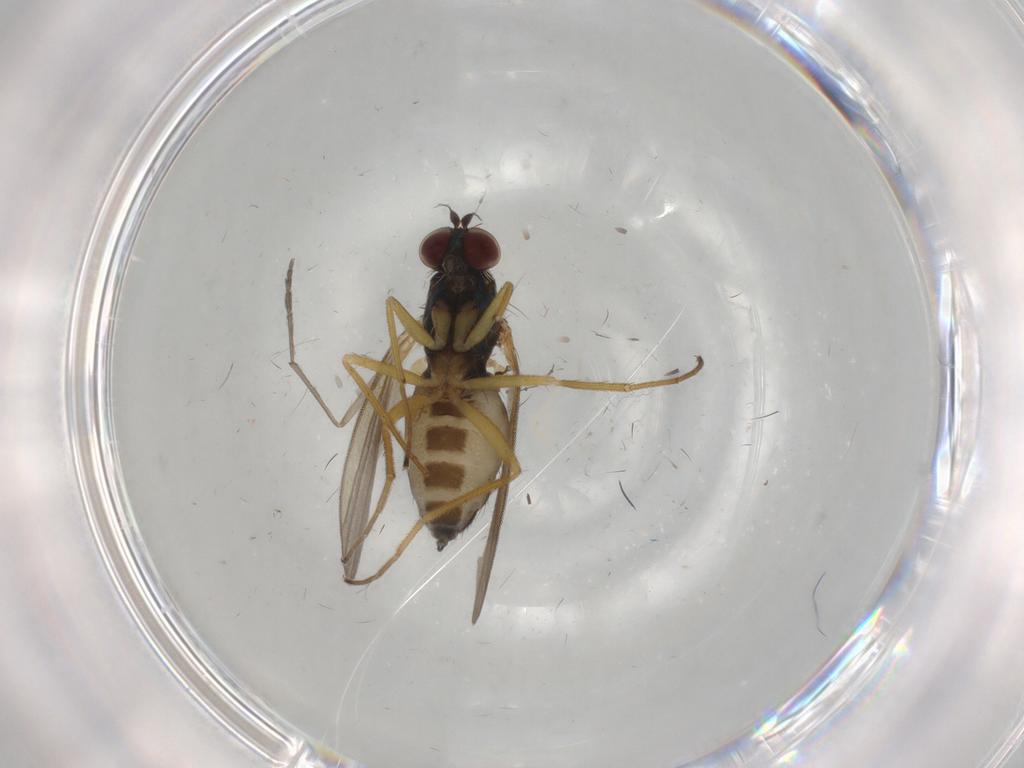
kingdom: Animalia
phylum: Arthropoda
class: Insecta
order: Diptera
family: Dolichopodidae
